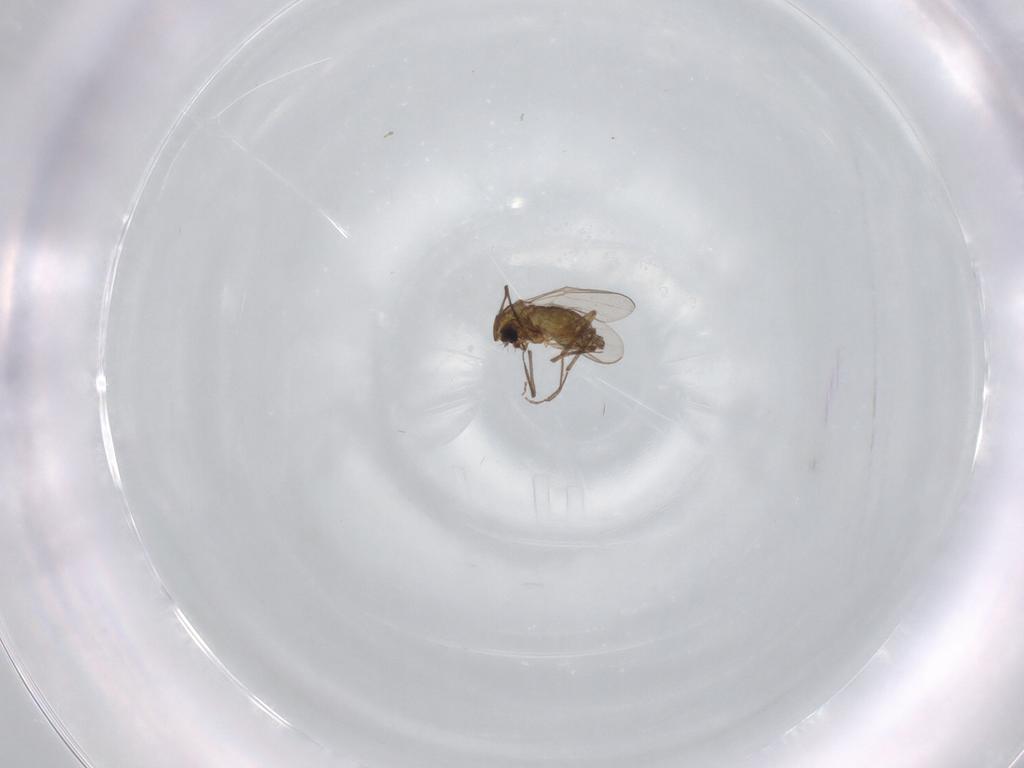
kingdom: Animalia
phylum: Arthropoda
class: Insecta
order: Diptera
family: Chironomidae
